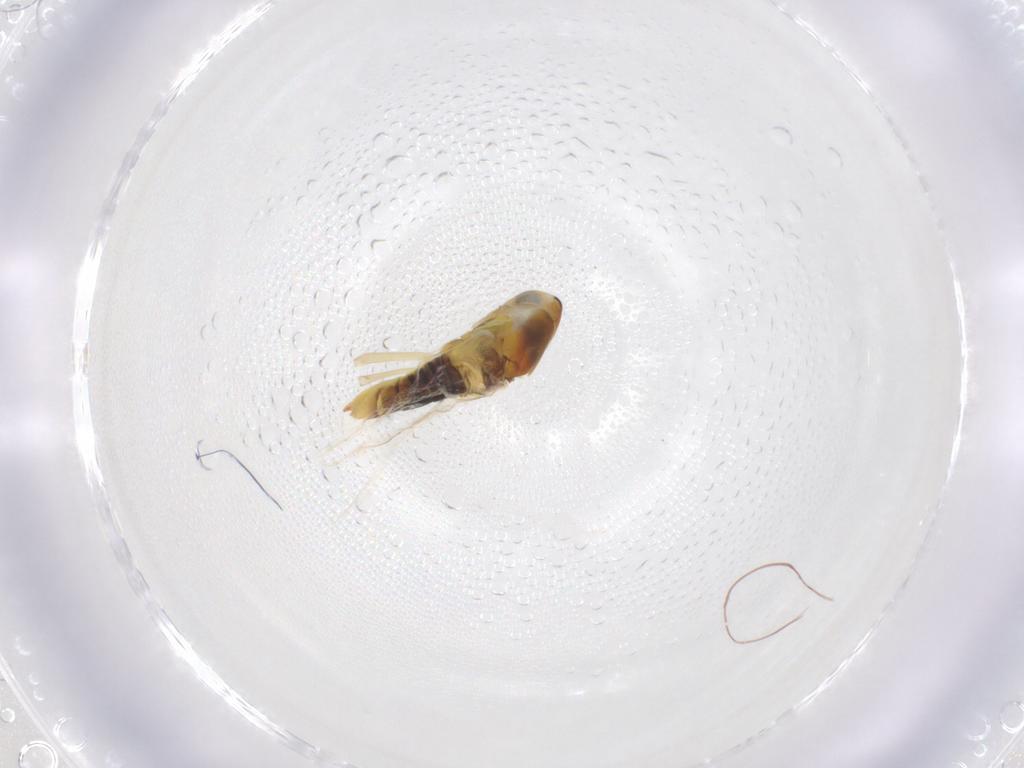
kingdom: Animalia
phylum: Arthropoda
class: Insecta
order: Hemiptera
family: Cicadellidae
